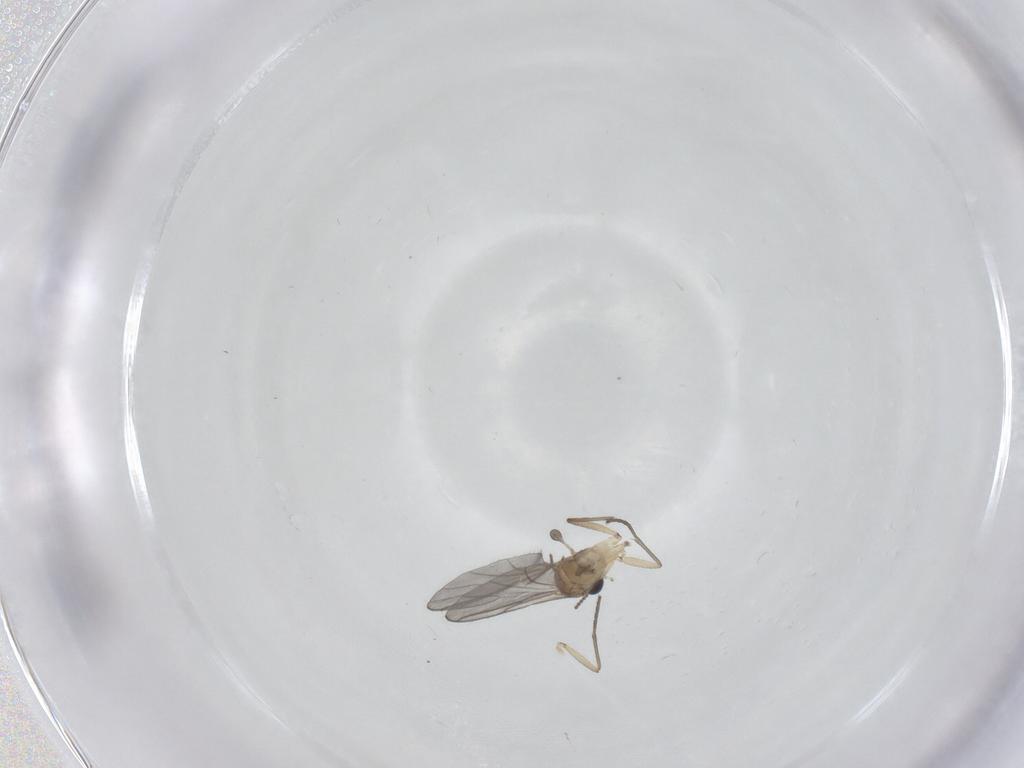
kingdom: Animalia
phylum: Arthropoda
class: Insecta
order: Diptera
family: Sciaridae
